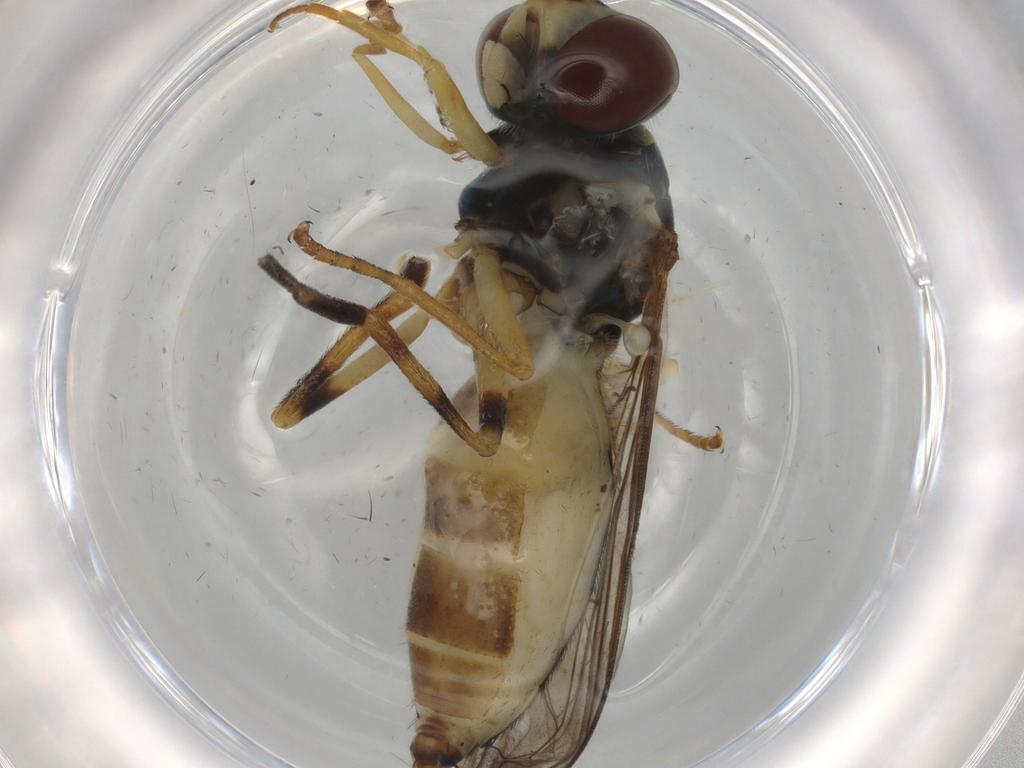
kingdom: Animalia
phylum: Arthropoda
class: Insecta
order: Diptera
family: Syrphidae
